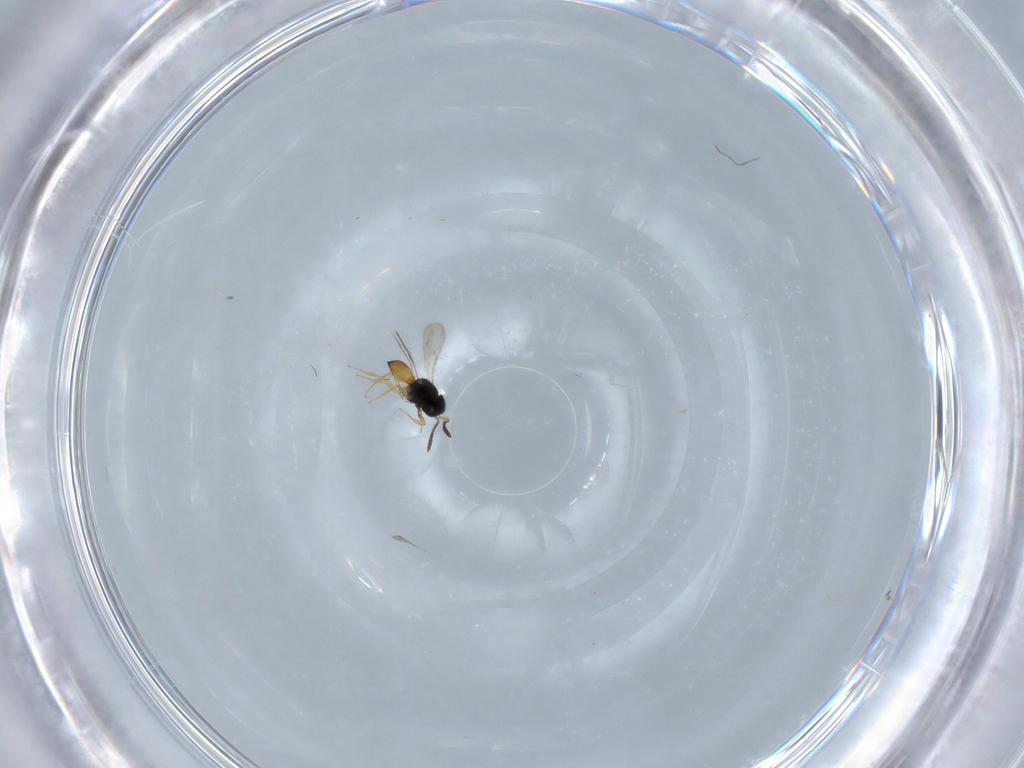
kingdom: Animalia
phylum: Arthropoda
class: Insecta
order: Hymenoptera
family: Scelionidae
